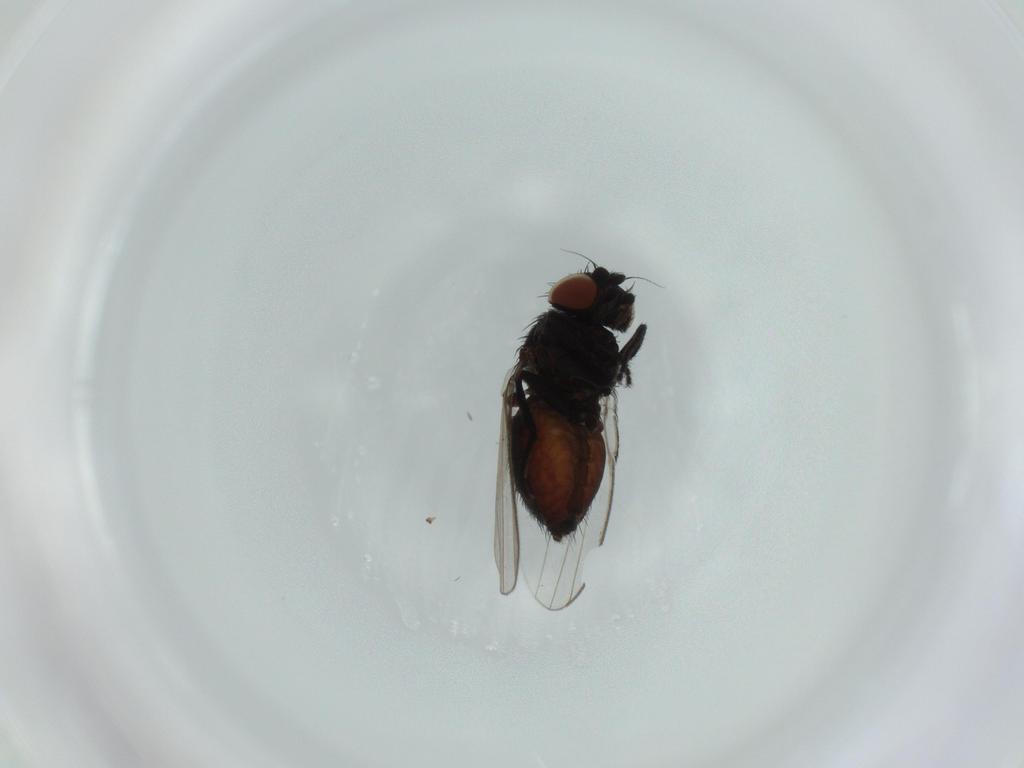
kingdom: Animalia
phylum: Arthropoda
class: Insecta
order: Diptera
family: Milichiidae
